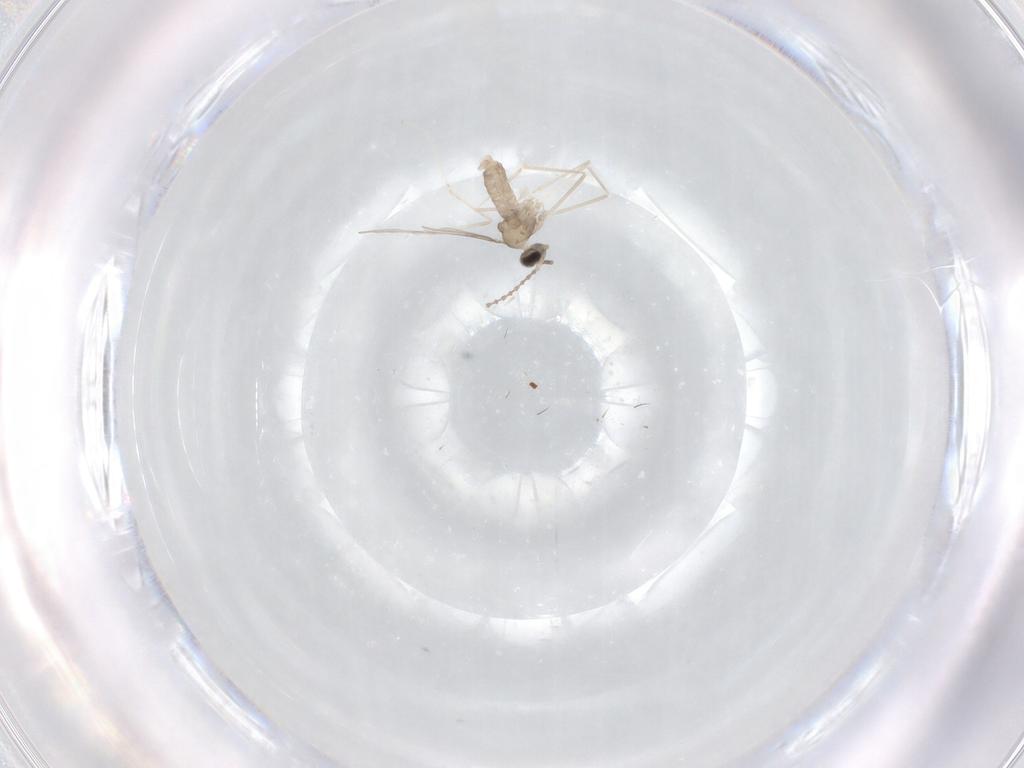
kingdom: Animalia
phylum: Arthropoda
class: Insecta
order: Diptera
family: Cecidomyiidae
